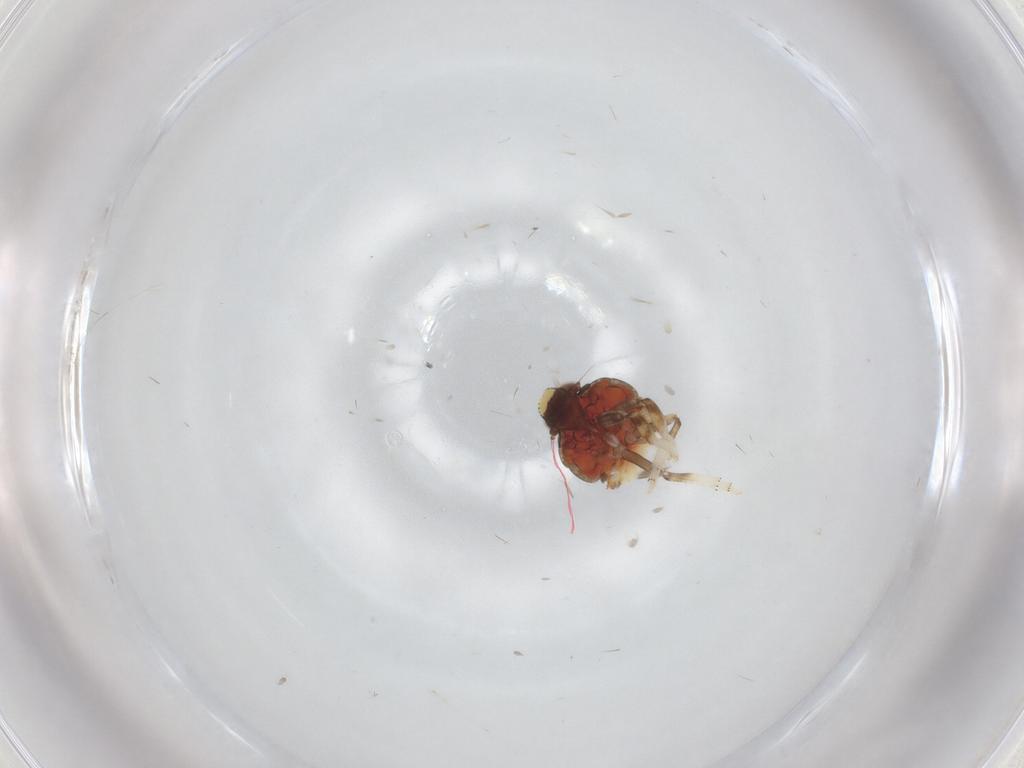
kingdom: Animalia
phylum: Arthropoda
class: Insecta
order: Hemiptera
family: Issidae
